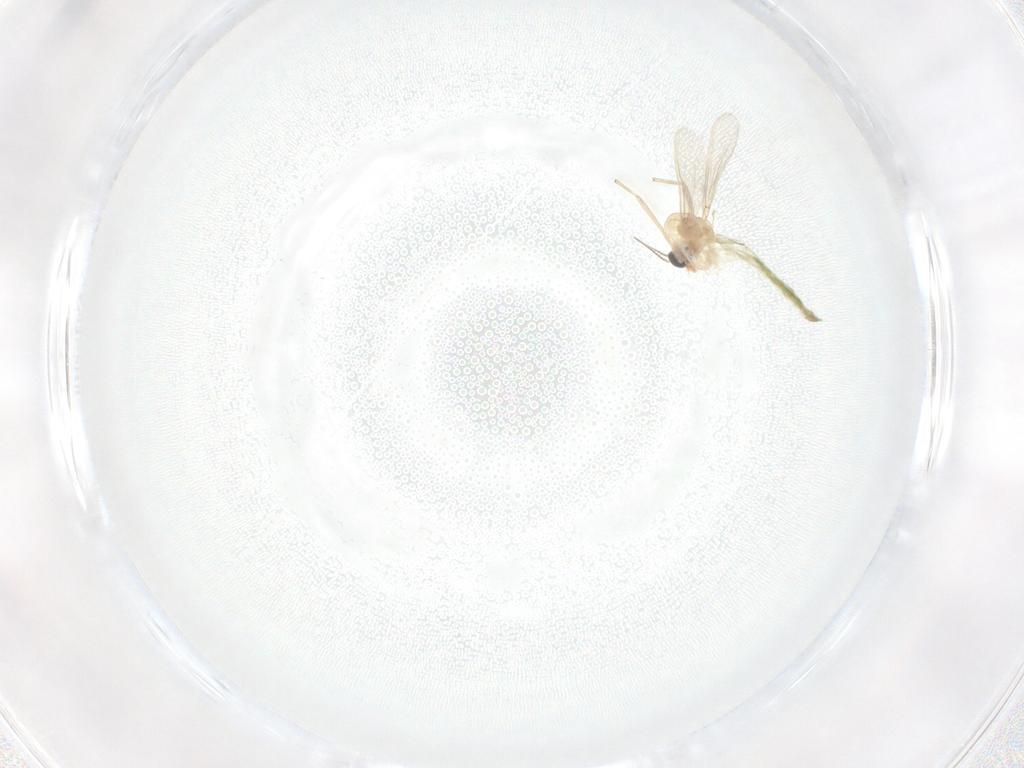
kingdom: Animalia
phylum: Arthropoda
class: Insecta
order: Diptera
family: Chironomidae
